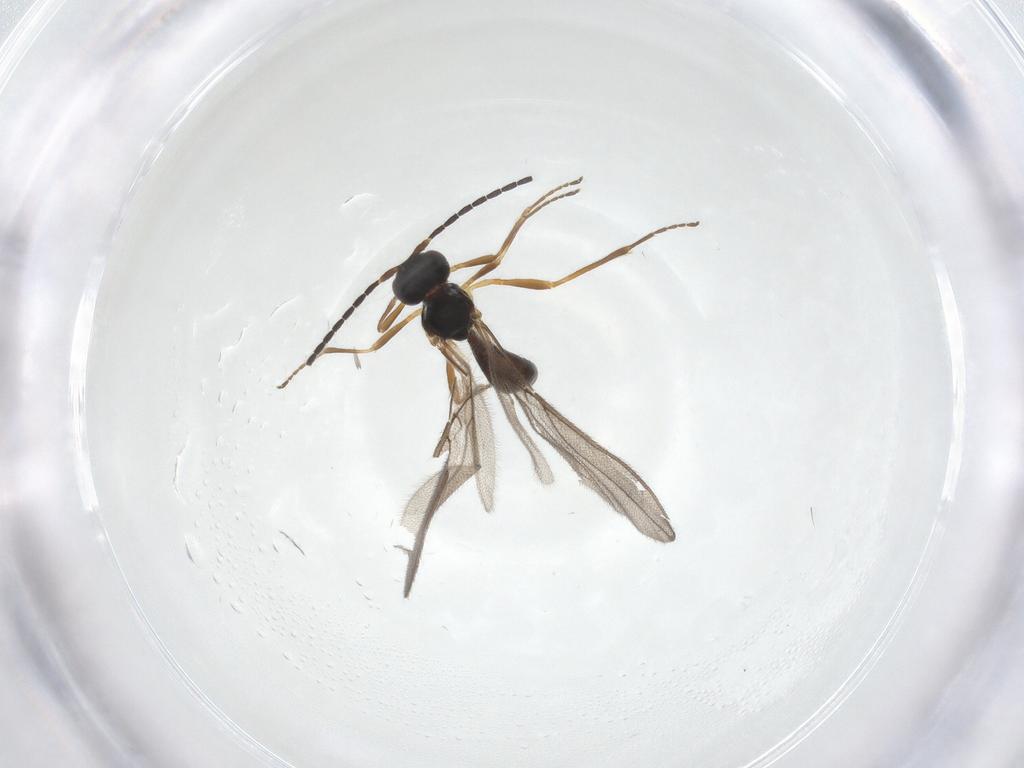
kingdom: Animalia
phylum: Arthropoda
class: Insecta
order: Hymenoptera
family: Braconidae
